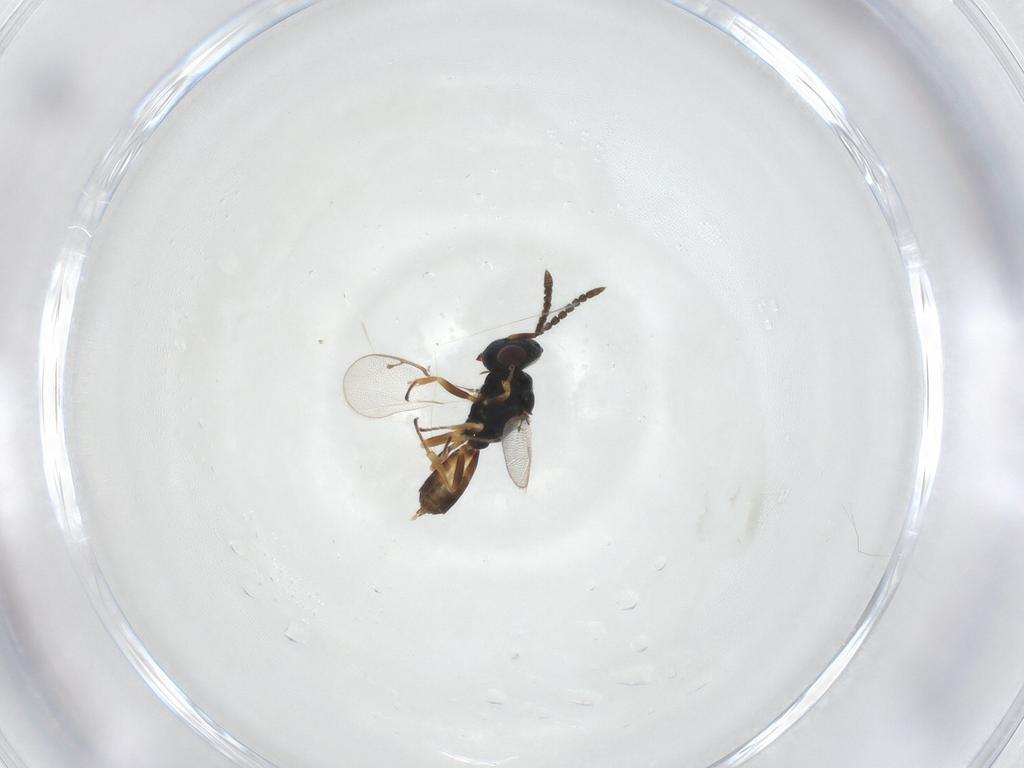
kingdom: Animalia
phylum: Arthropoda
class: Insecta
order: Hymenoptera
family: Pteromalidae
